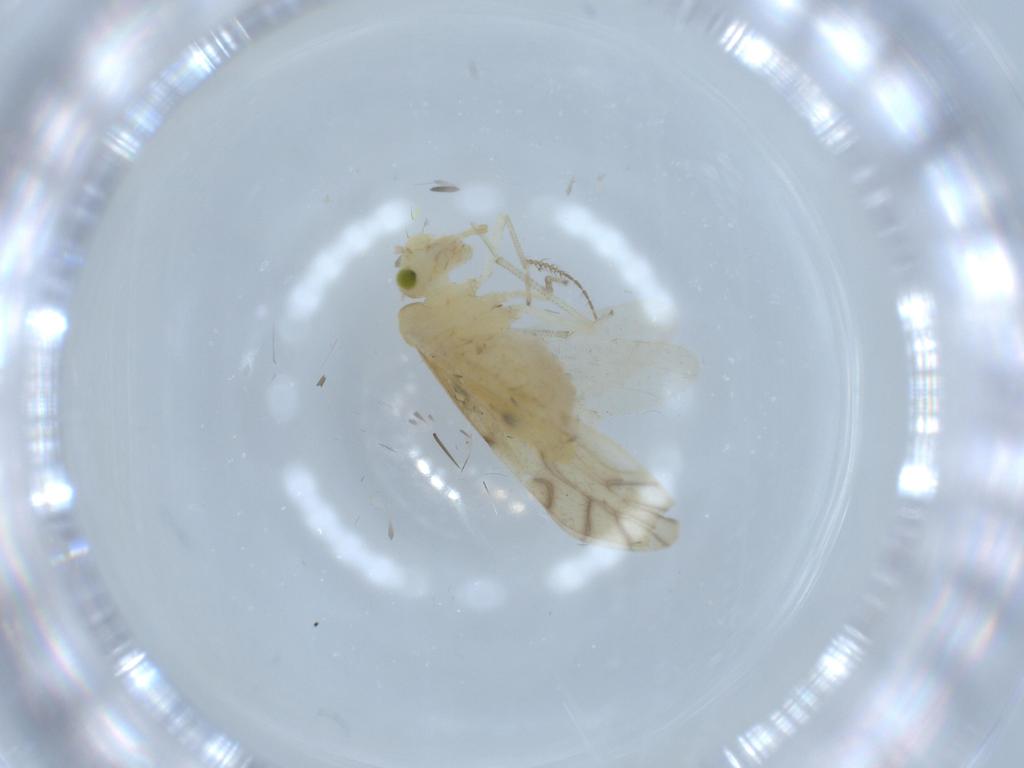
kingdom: Animalia
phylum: Arthropoda
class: Insecta
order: Psocodea
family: Caeciliusidae
